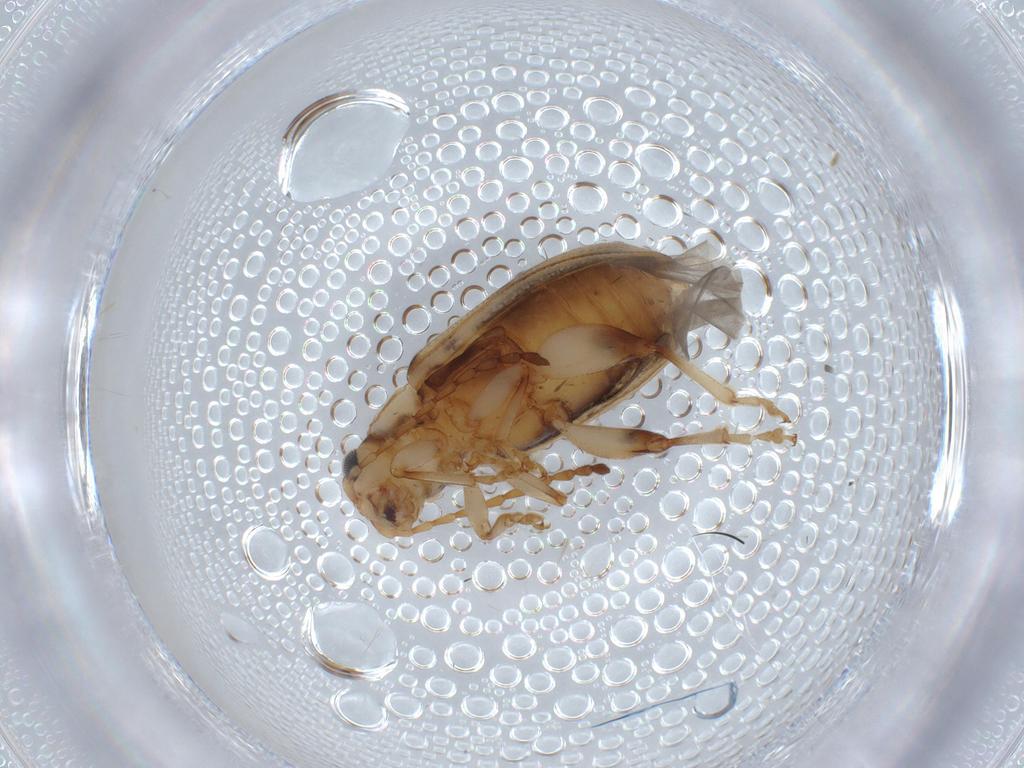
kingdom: Animalia
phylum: Arthropoda
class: Insecta
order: Coleoptera
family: Chrysomelidae
